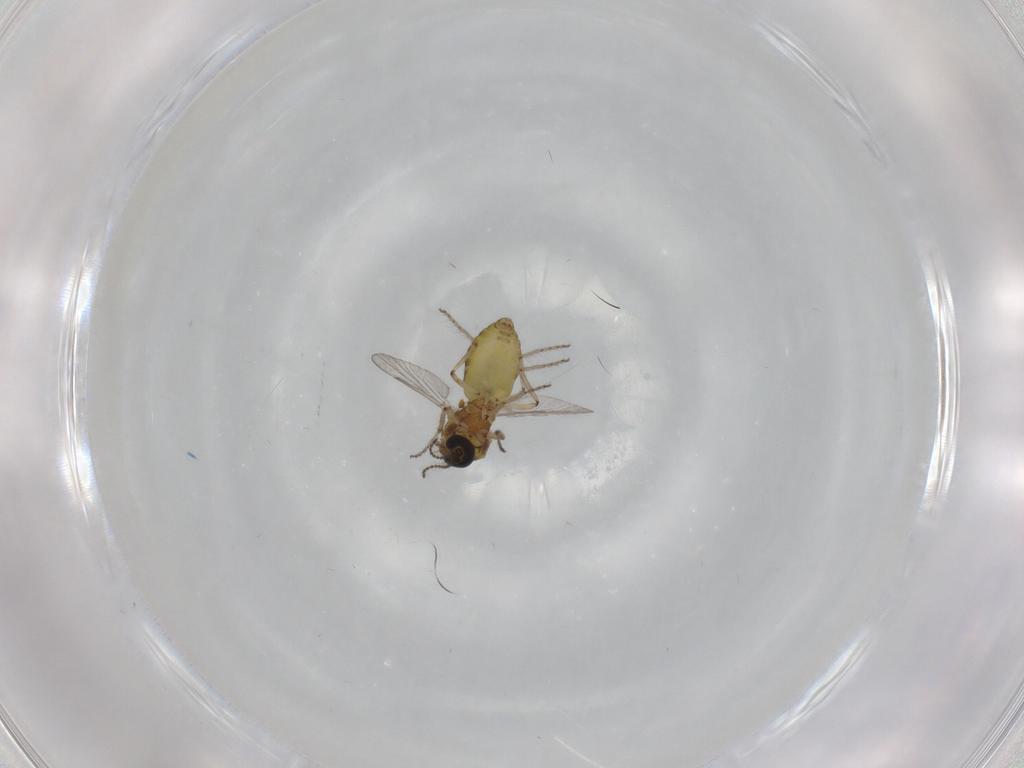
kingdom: Animalia
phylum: Arthropoda
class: Insecta
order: Diptera
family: Ceratopogonidae
